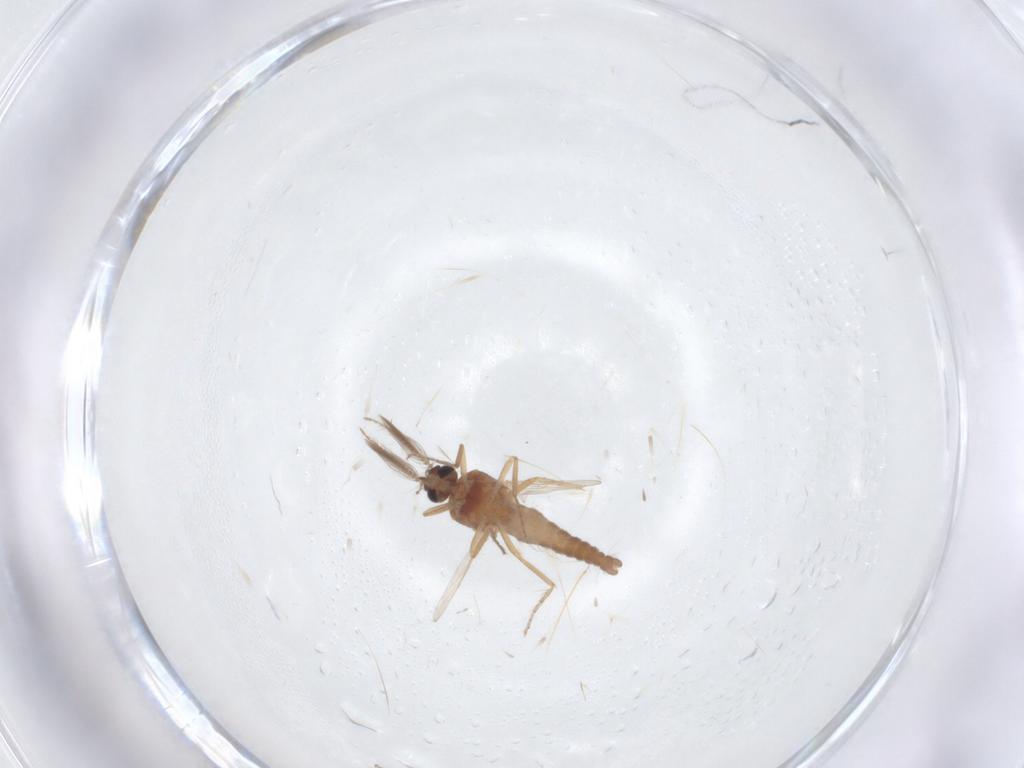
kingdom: Animalia
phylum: Arthropoda
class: Insecta
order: Diptera
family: Ceratopogonidae
